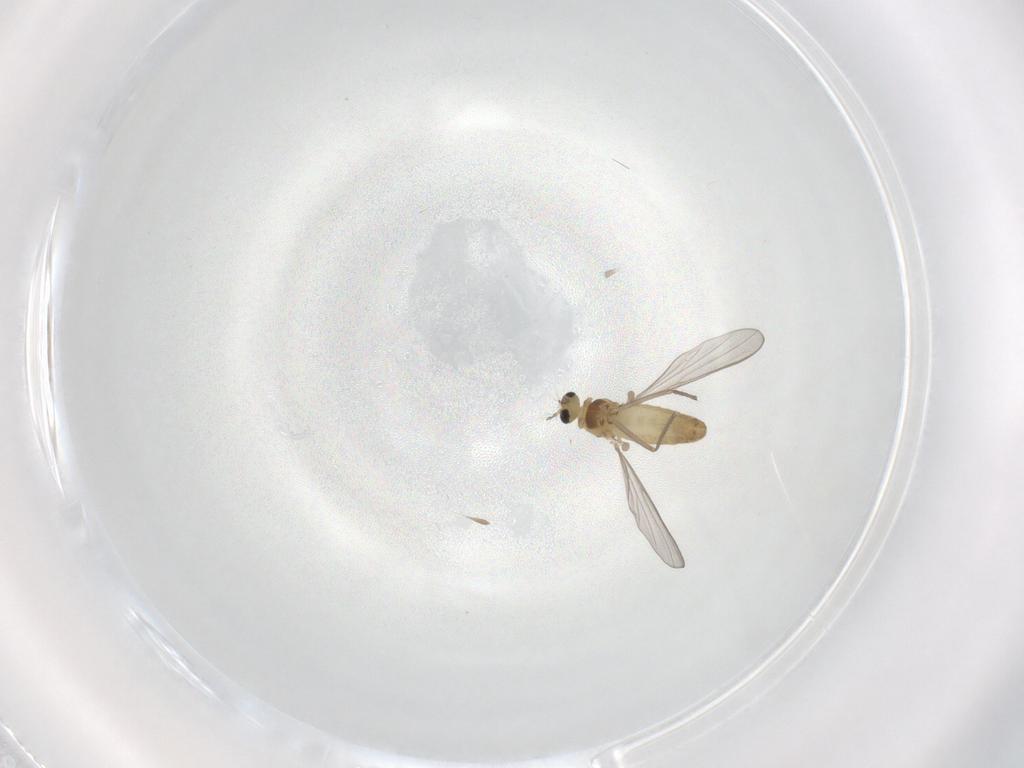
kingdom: Animalia
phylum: Arthropoda
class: Insecta
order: Diptera
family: Chironomidae
